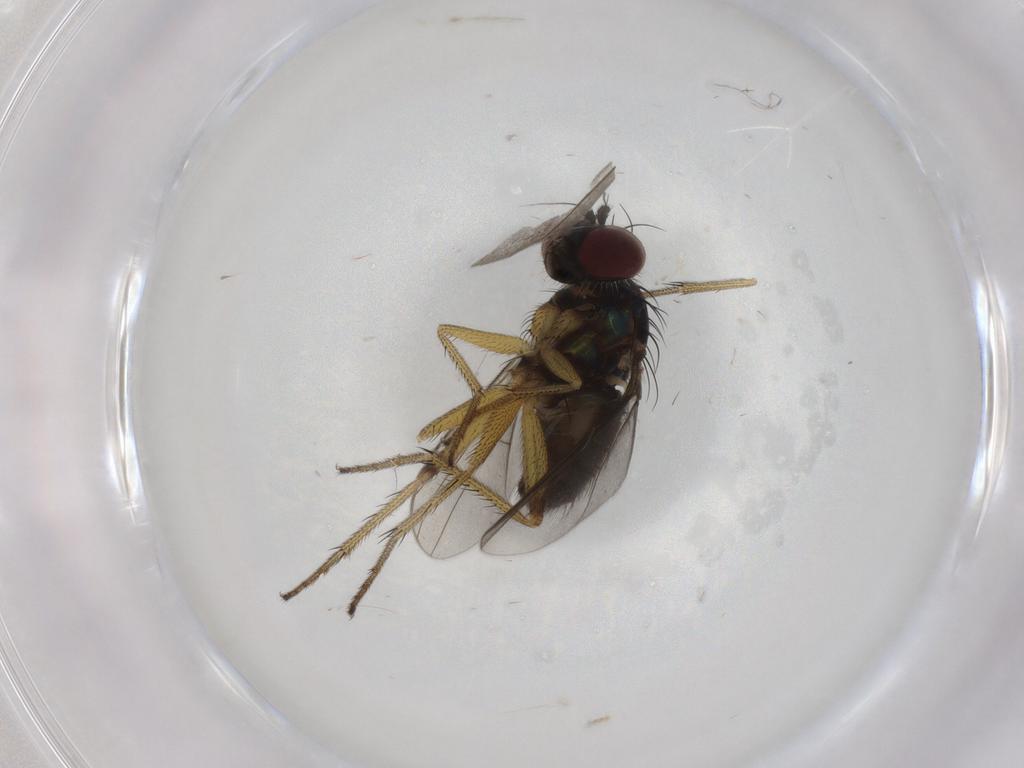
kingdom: Animalia
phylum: Arthropoda
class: Insecta
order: Diptera
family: Dolichopodidae
